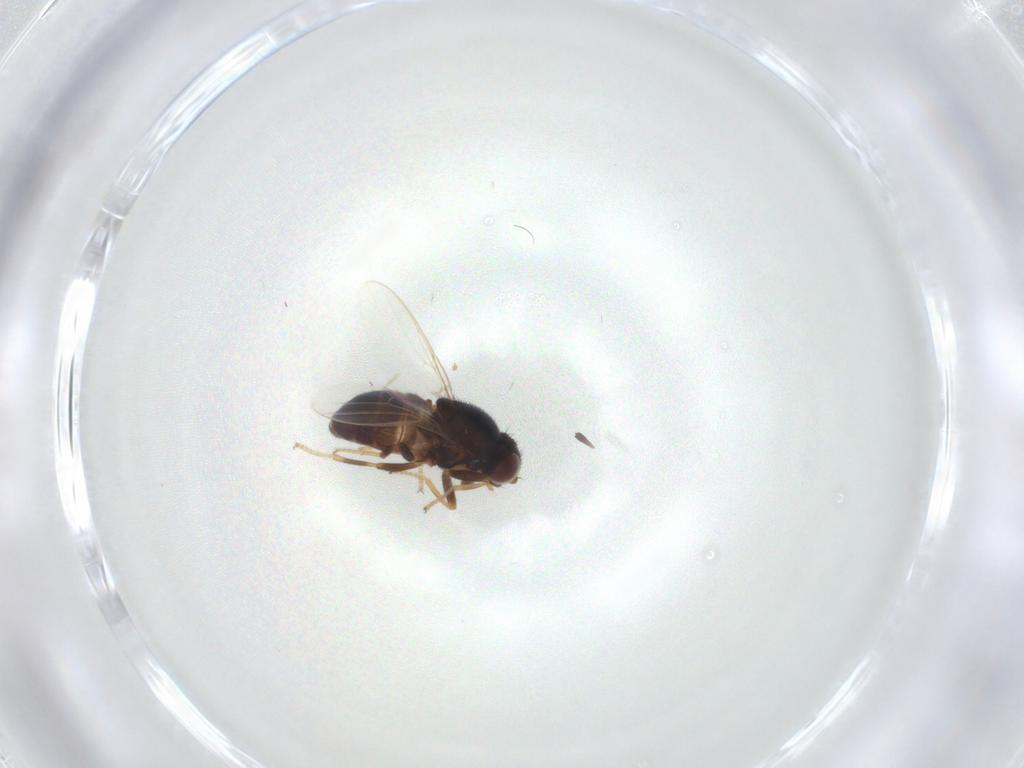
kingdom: Animalia
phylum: Arthropoda
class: Insecta
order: Diptera
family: Chloropidae
